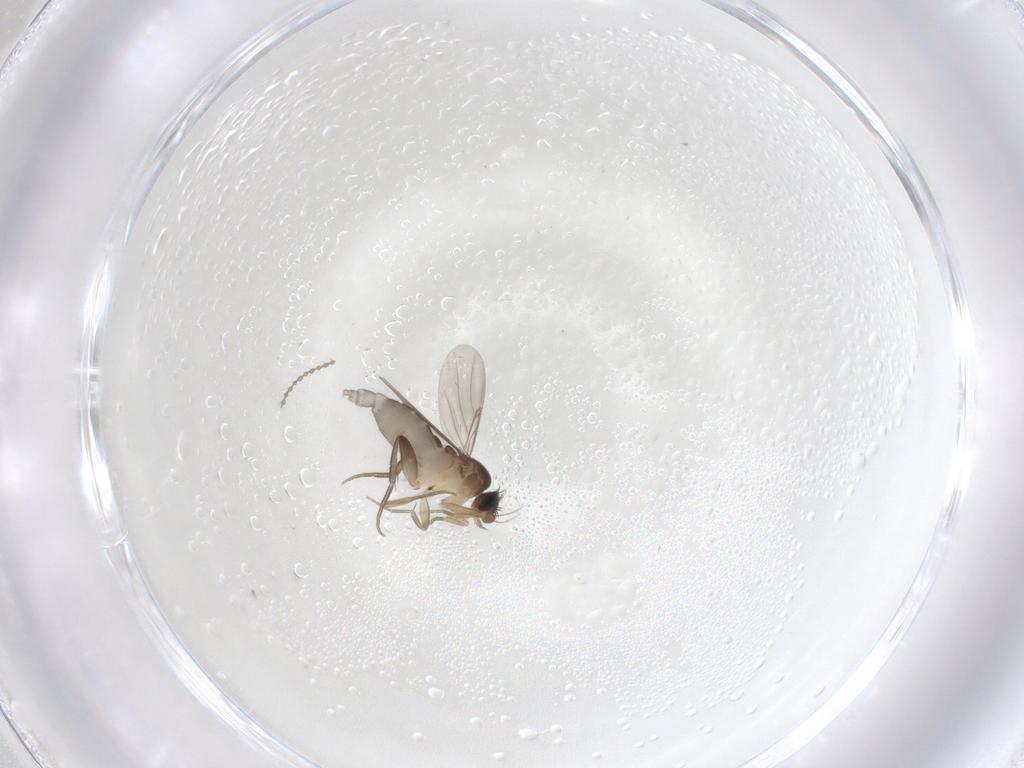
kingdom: Animalia
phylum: Arthropoda
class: Insecta
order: Diptera
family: Phoridae
